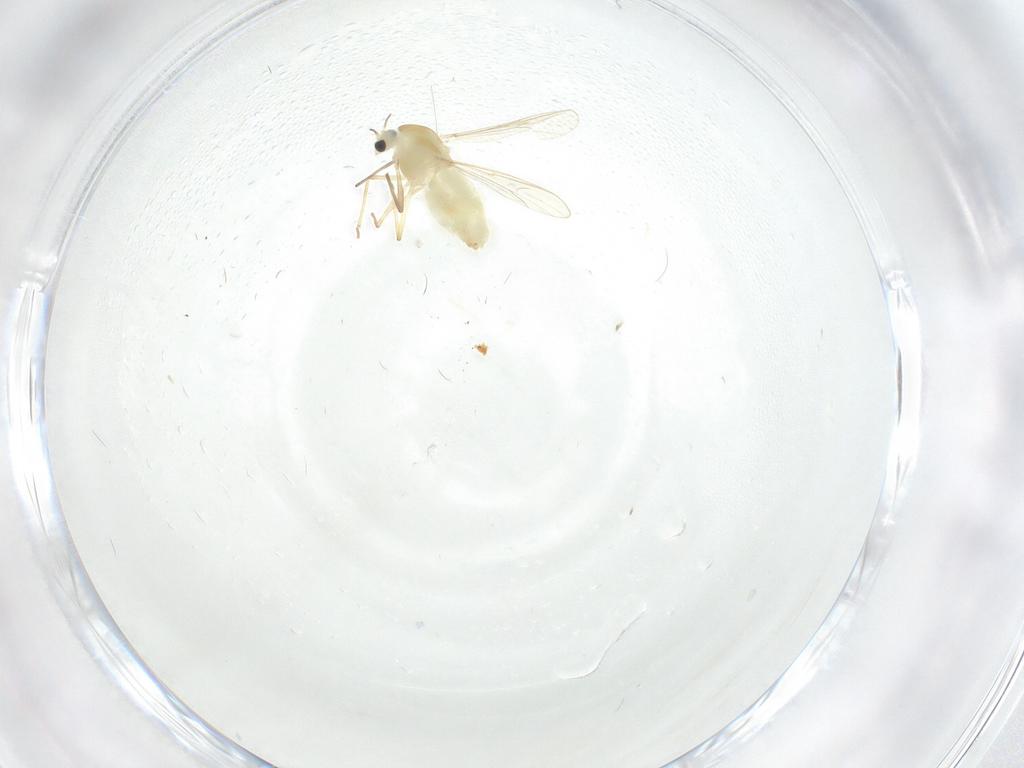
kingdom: Animalia
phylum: Arthropoda
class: Insecta
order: Diptera
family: Chironomidae
